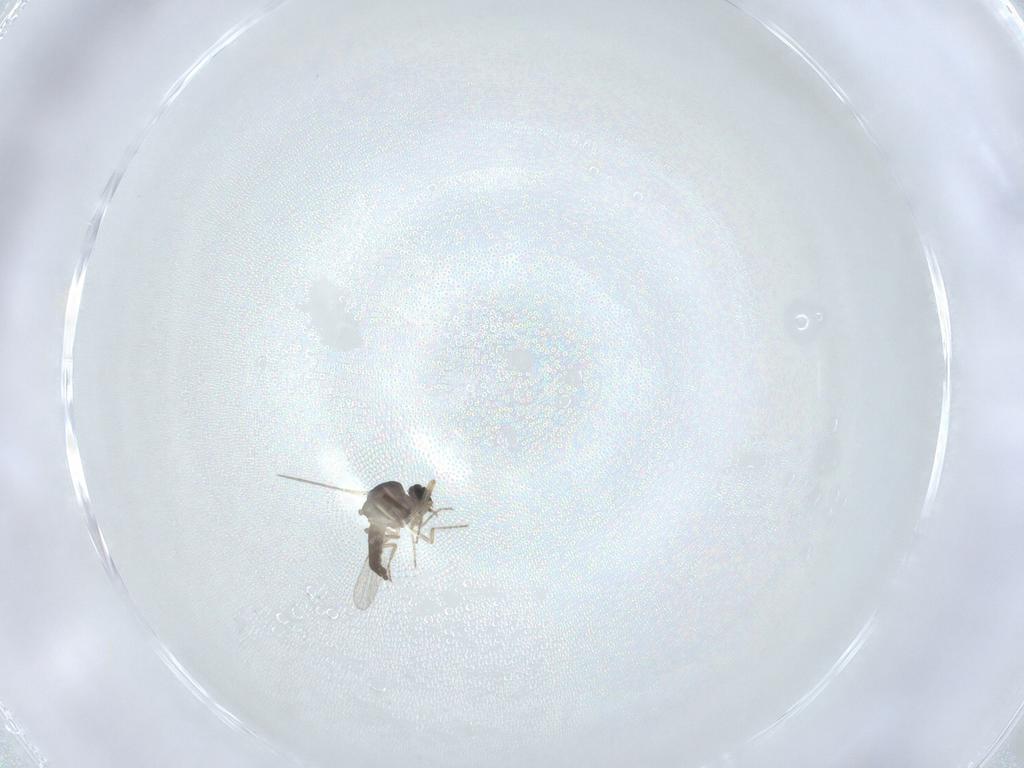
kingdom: Animalia
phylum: Arthropoda
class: Insecta
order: Diptera
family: Ceratopogonidae
